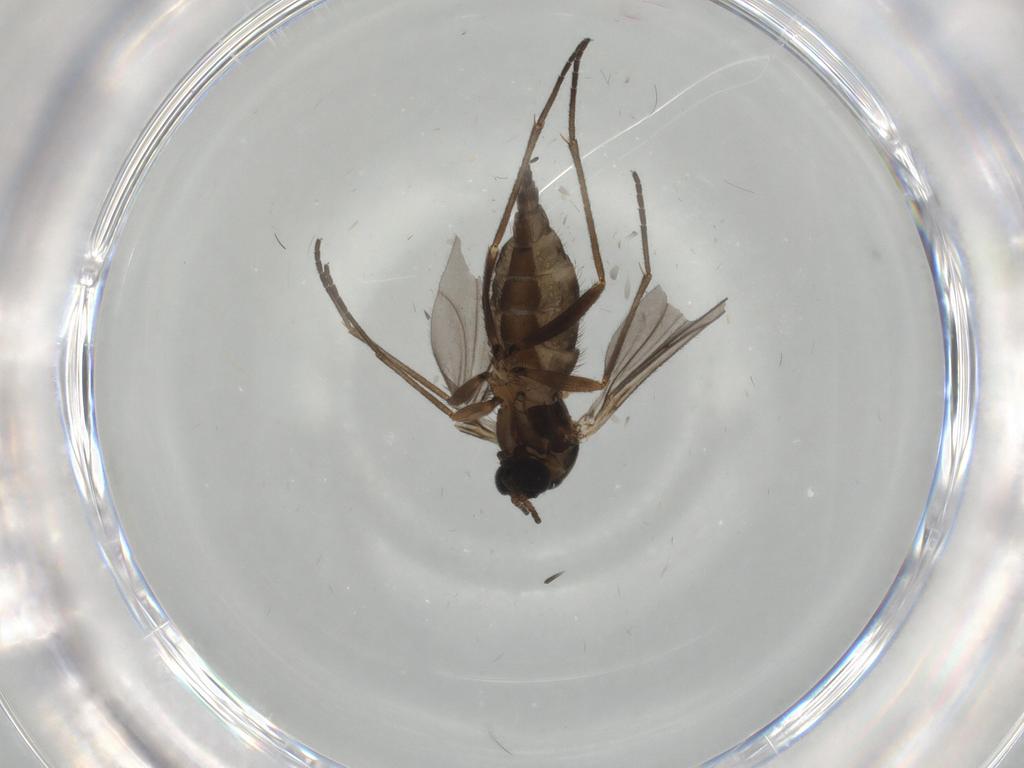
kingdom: Animalia
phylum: Arthropoda
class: Insecta
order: Diptera
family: Sciaridae
